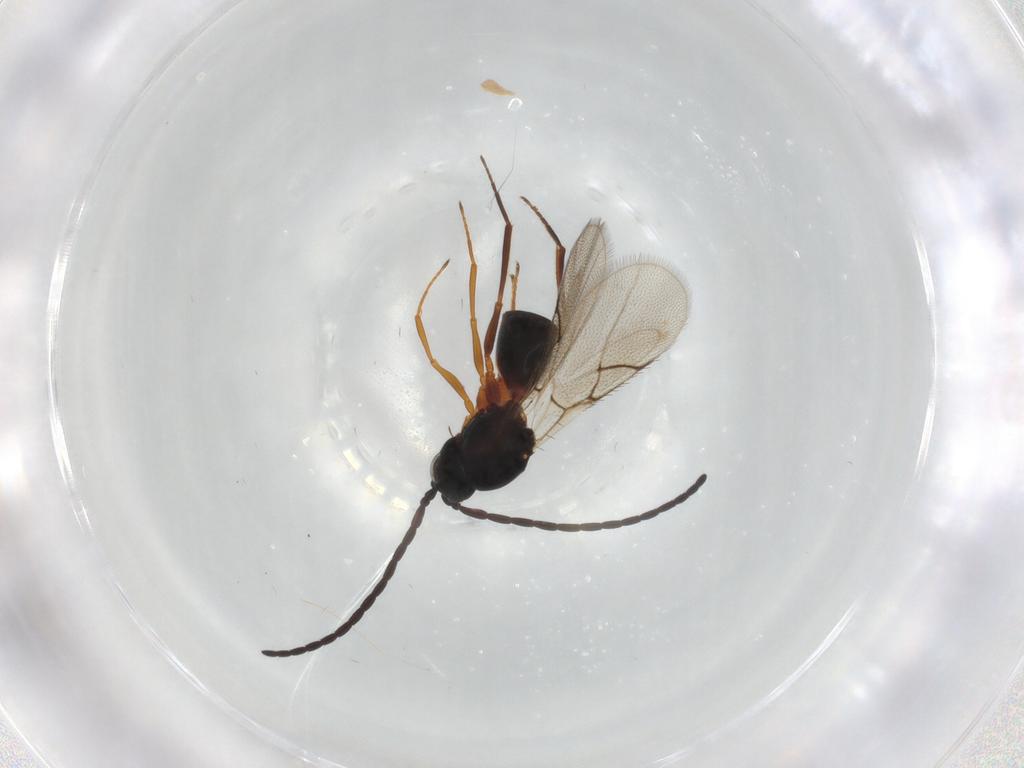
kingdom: Animalia
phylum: Arthropoda
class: Insecta
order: Hymenoptera
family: Figitidae
